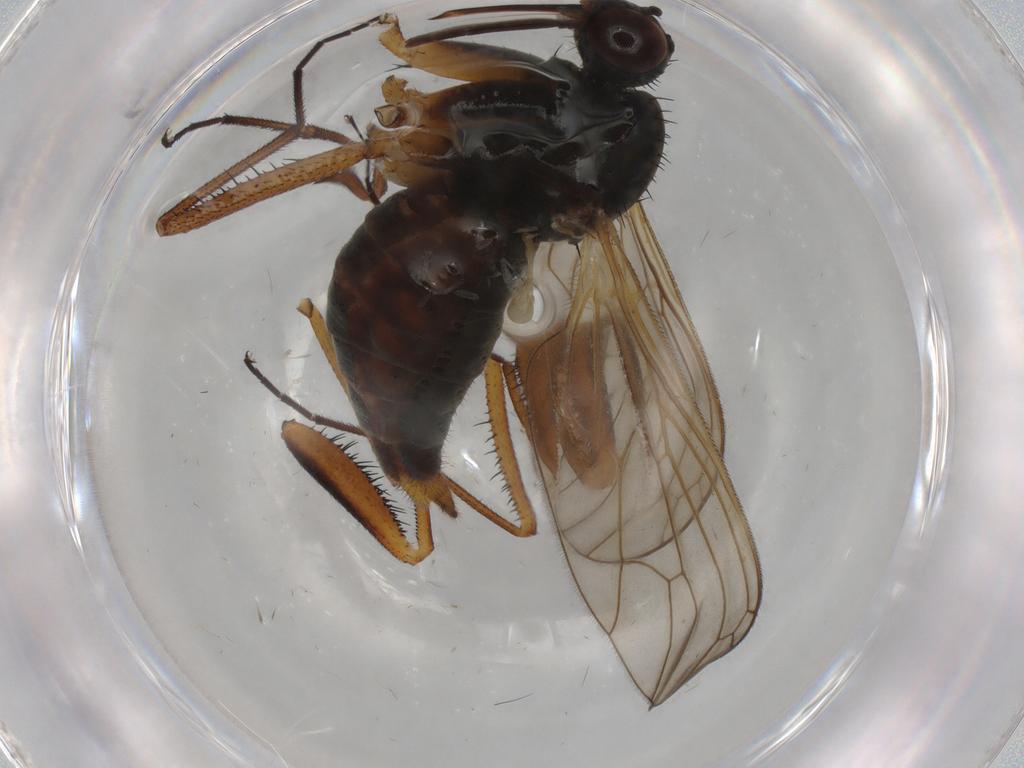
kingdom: Animalia
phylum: Arthropoda
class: Insecta
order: Diptera
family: Empididae
